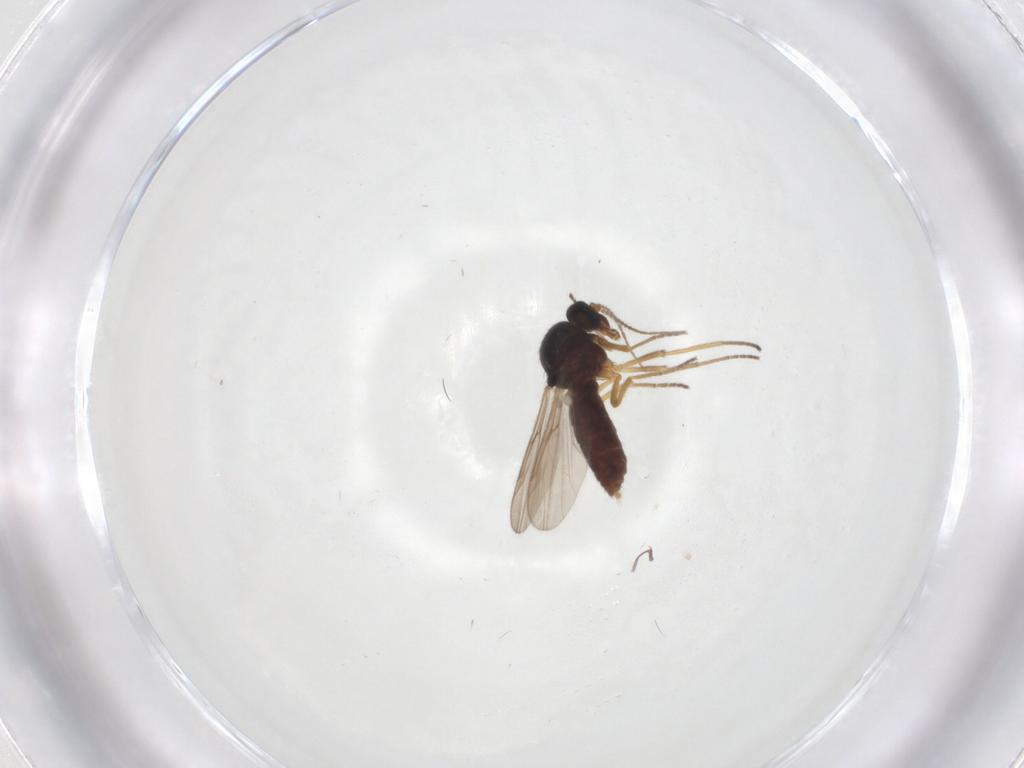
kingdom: Animalia
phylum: Arthropoda
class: Insecta
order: Diptera
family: Ceratopogonidae
